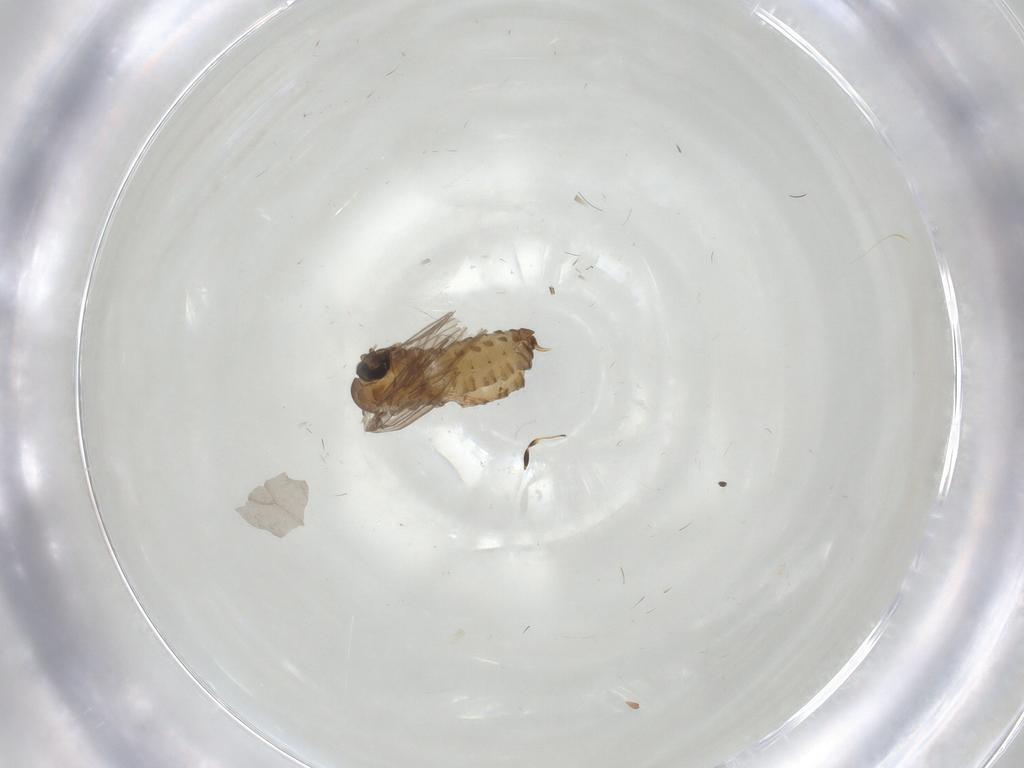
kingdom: Animalia
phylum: Arthropoda
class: Insecta
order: Diptera
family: Psychodidae
